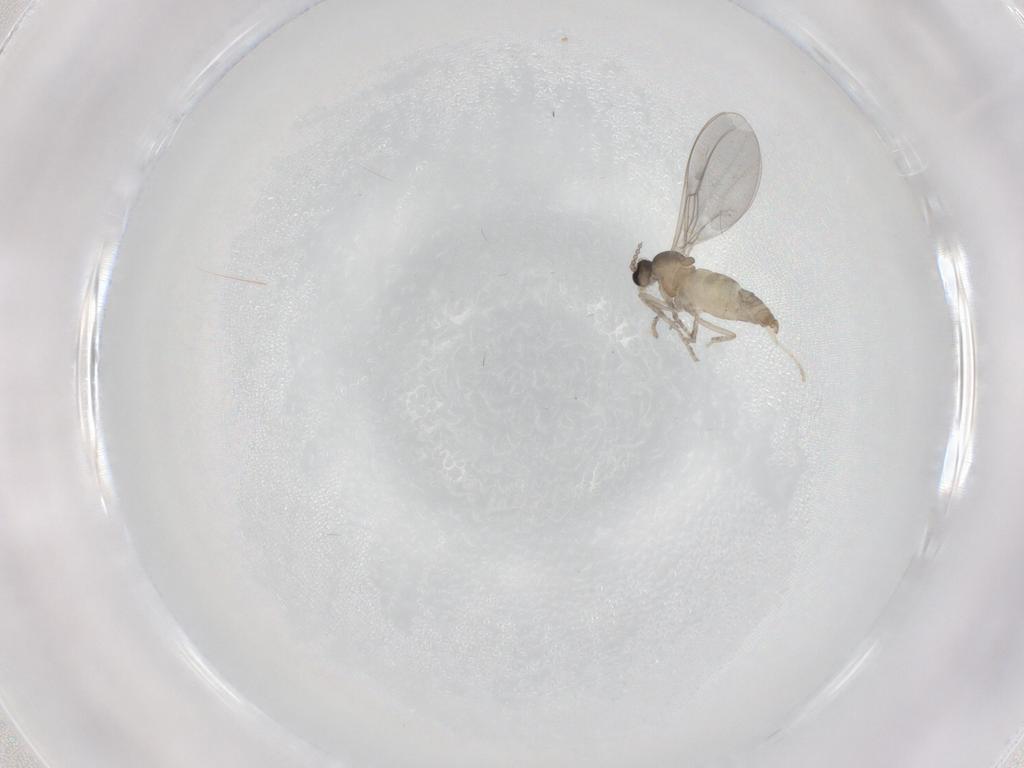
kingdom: Animalia
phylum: Arthropoda
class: Insecta
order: Diptera
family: Cecidomyiidae
